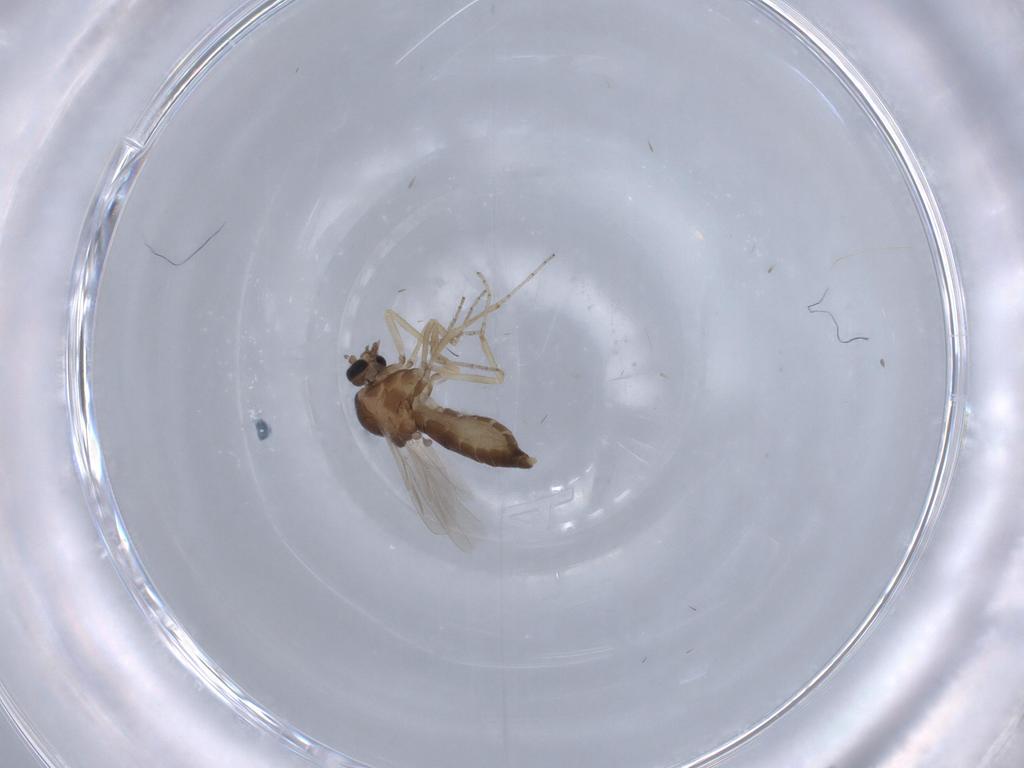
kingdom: Animalia
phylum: Arthropoda
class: Insecta
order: Diptera
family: Ceratopogonidae
